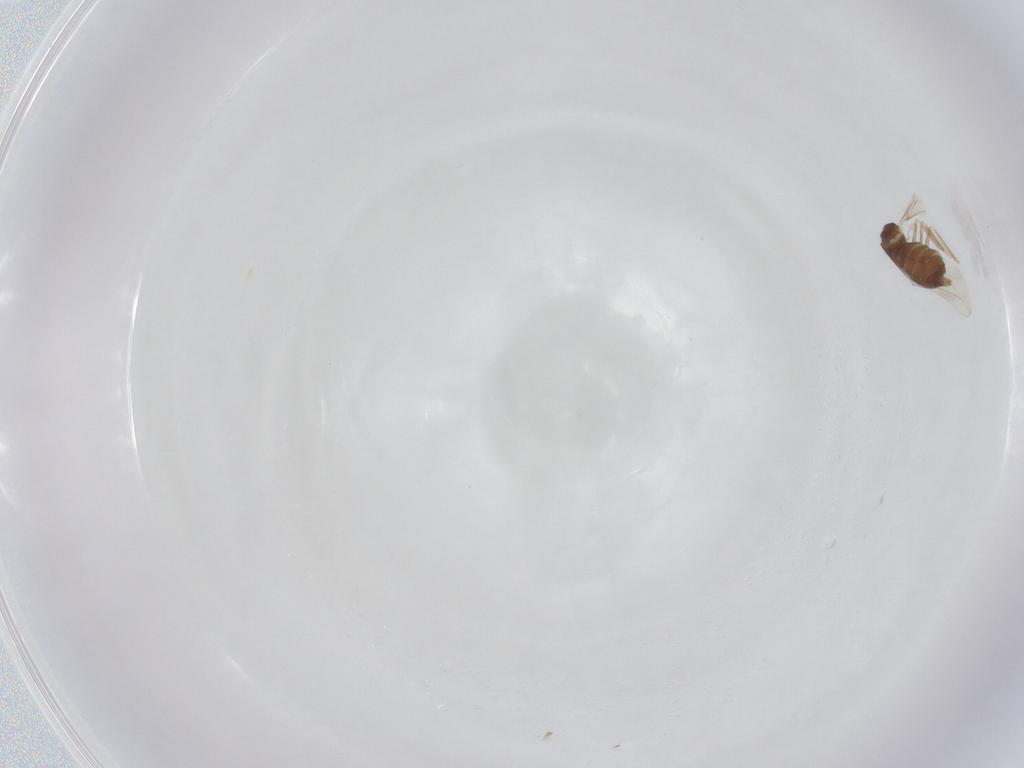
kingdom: Animalia
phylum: Arthropoda
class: Insecta
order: Diptera
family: Cecidomyiidae
